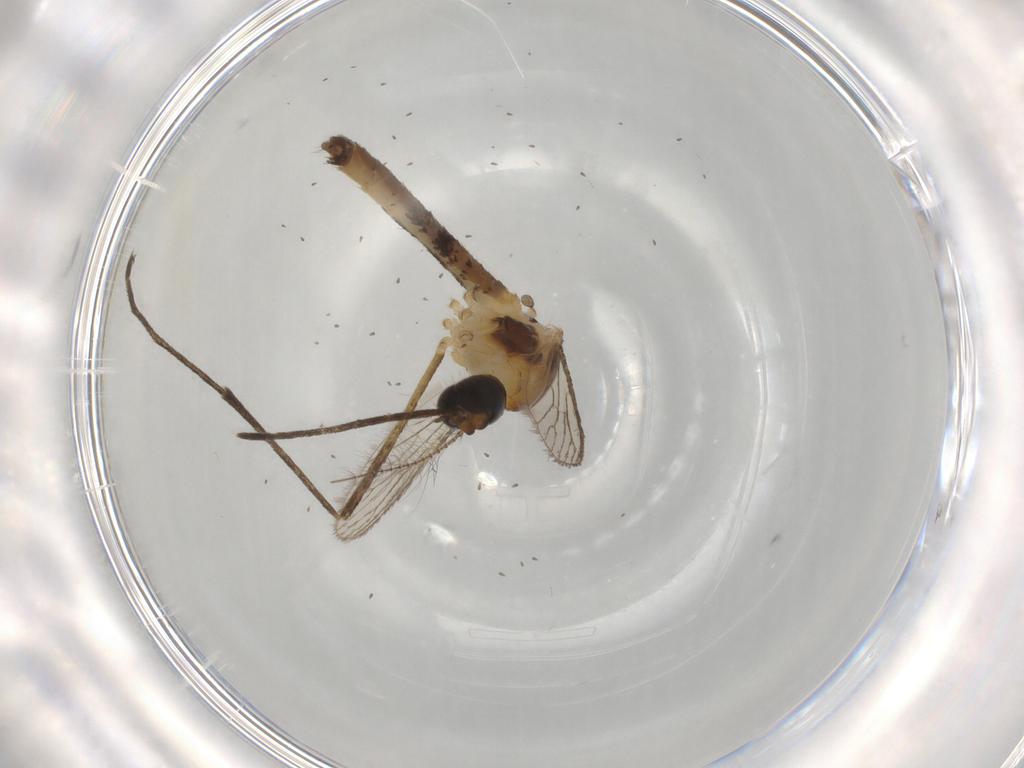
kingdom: Animalia
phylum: Arthropoda
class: Insecta
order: Diptera
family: Culicidae
